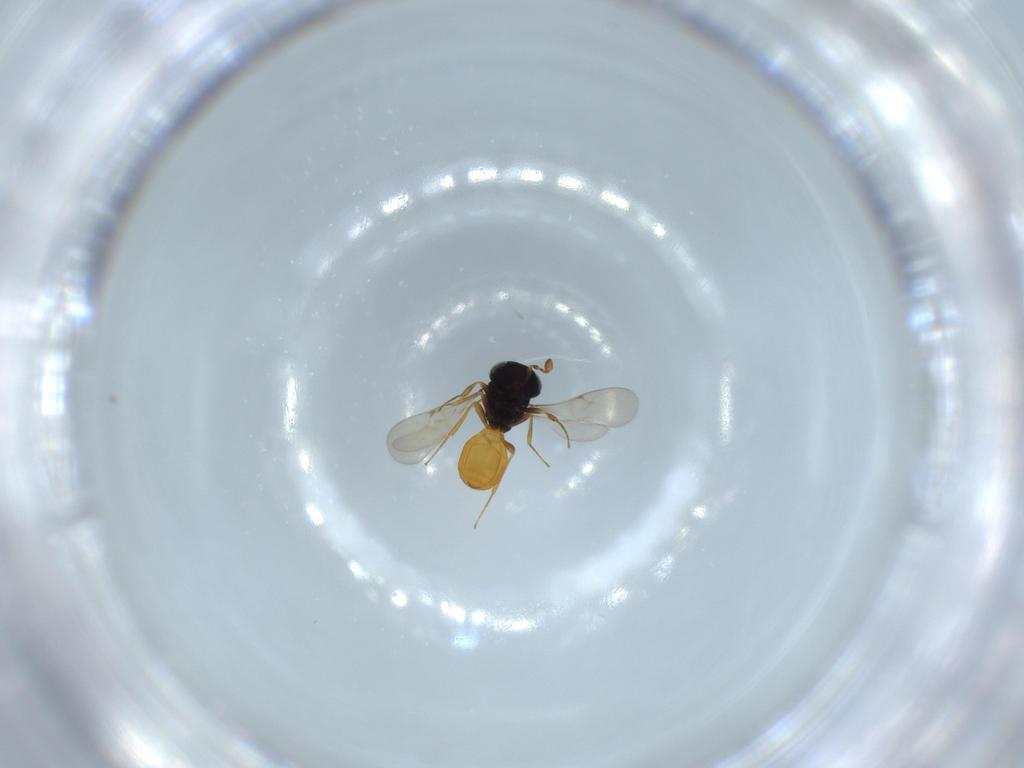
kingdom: Animalia
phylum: Arthropoda
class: Insecta
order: Hymenoptera
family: Scelionidae
